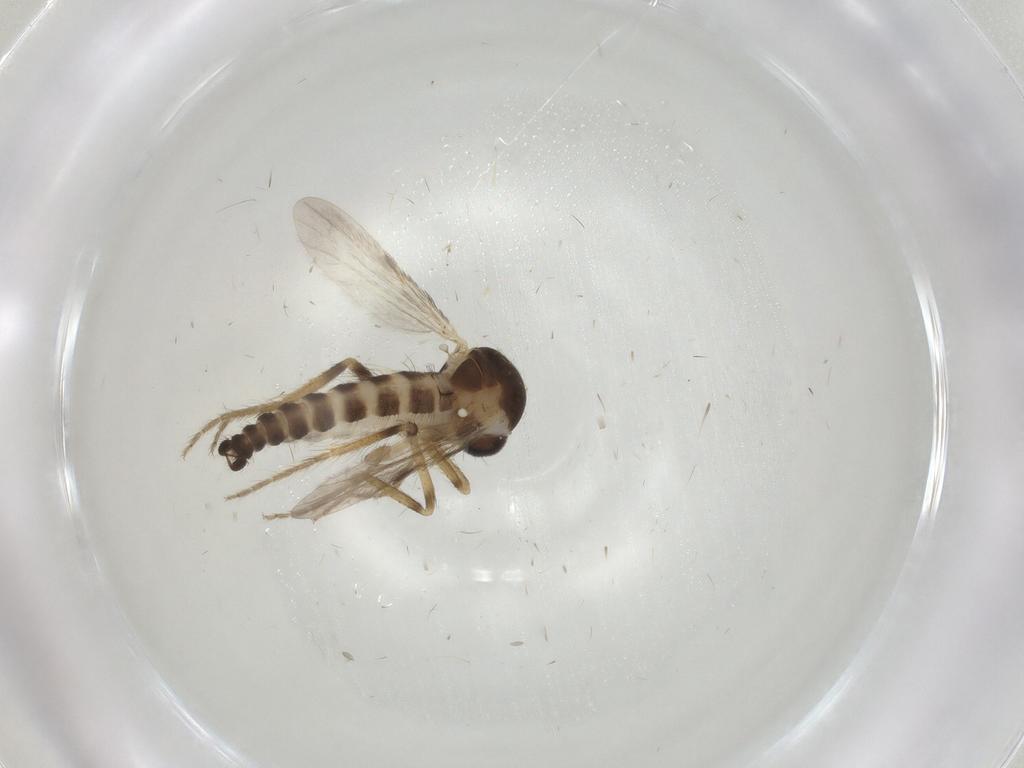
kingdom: Animalia
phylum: Arthropoda
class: Insecta
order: Diptera
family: Ceratopogonidae
